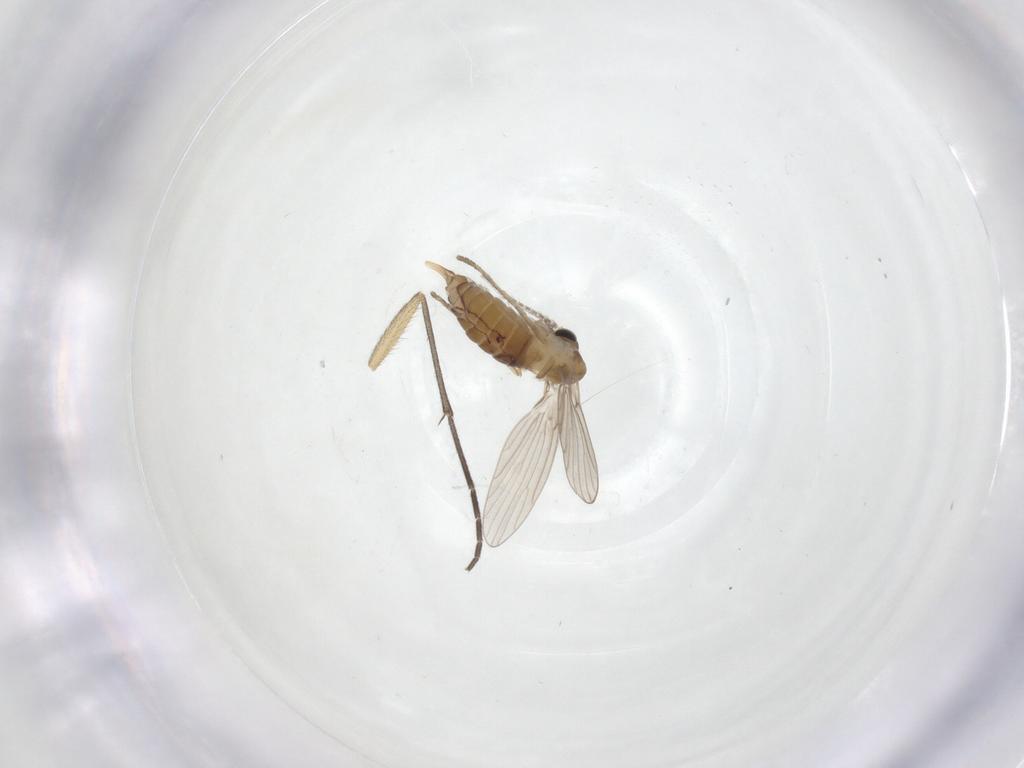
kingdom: Animalia
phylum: Arthropoda
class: Insecta
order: Diptera
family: Sciaridae
